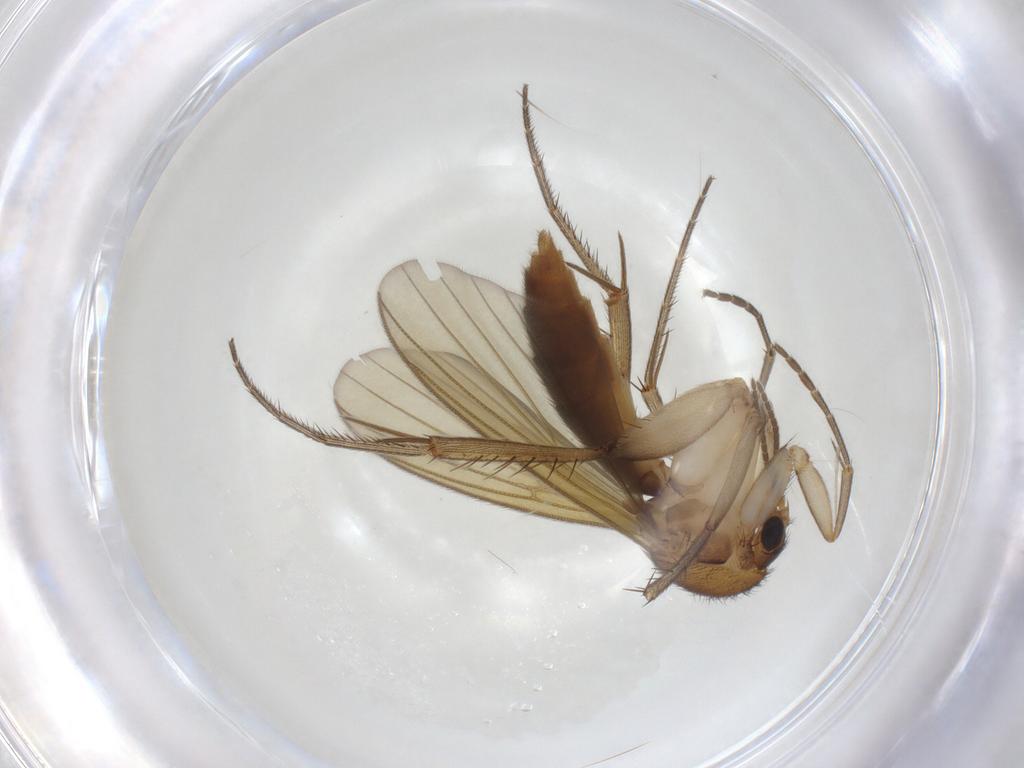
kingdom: Animalia
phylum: Arthropoda
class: Insecta
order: Diptera
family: Mycetophilidae
